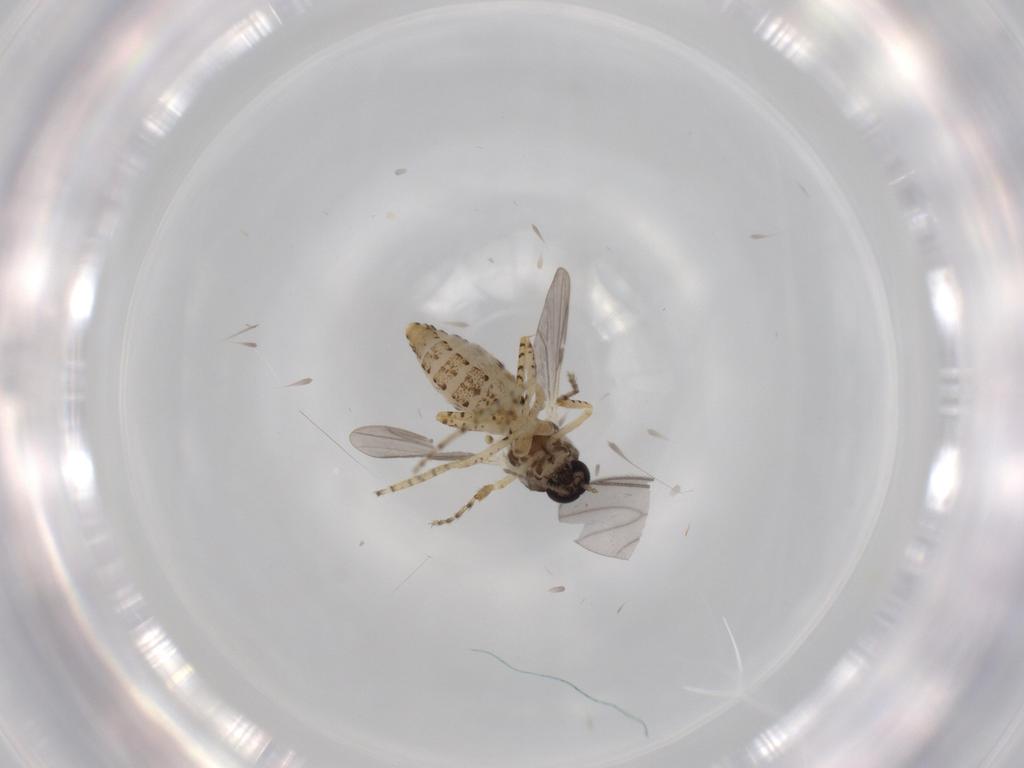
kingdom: Animalia
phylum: Arthropoda
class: Insecta
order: Diptera
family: Ceratopogonidae
